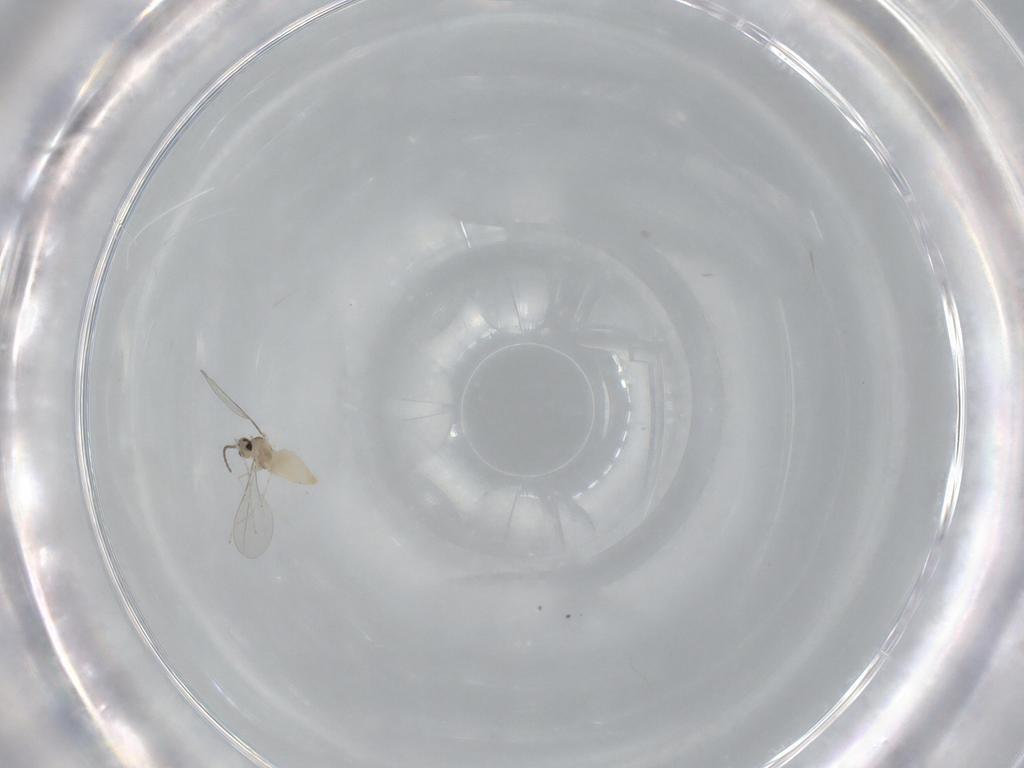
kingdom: Animalia
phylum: Arthropoda
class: Insecta
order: Diptera
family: Cecidomyiidae
